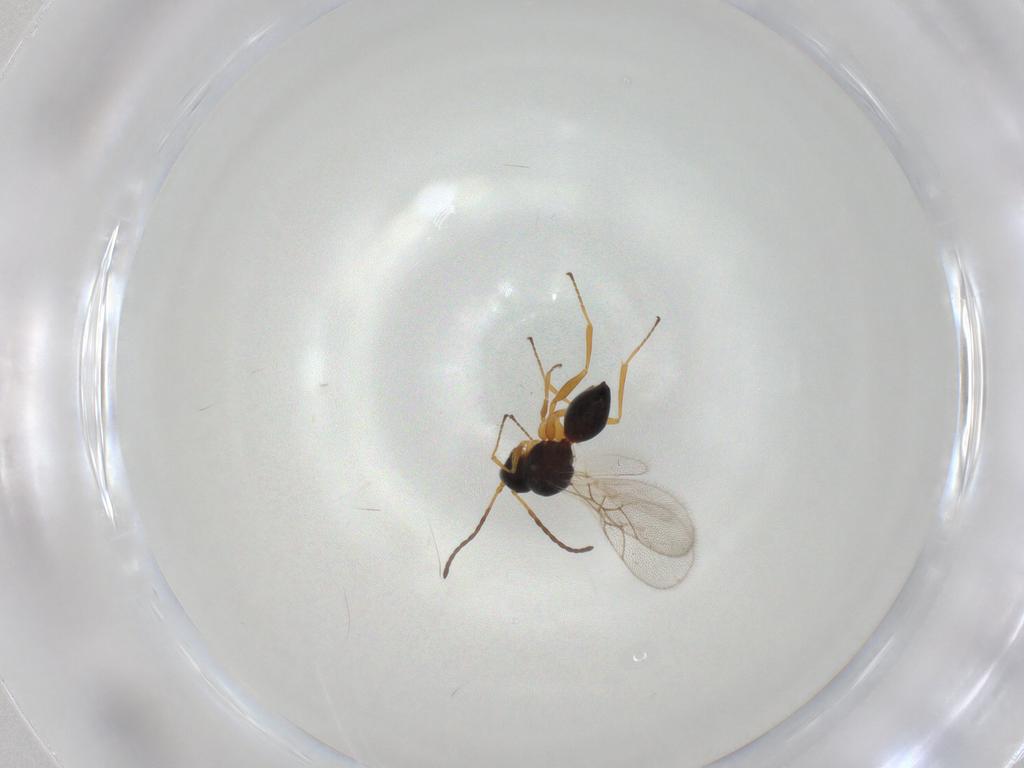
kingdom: Animalia
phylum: Arthropoda
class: Insecta
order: Hymenoptera
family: Figitidae
